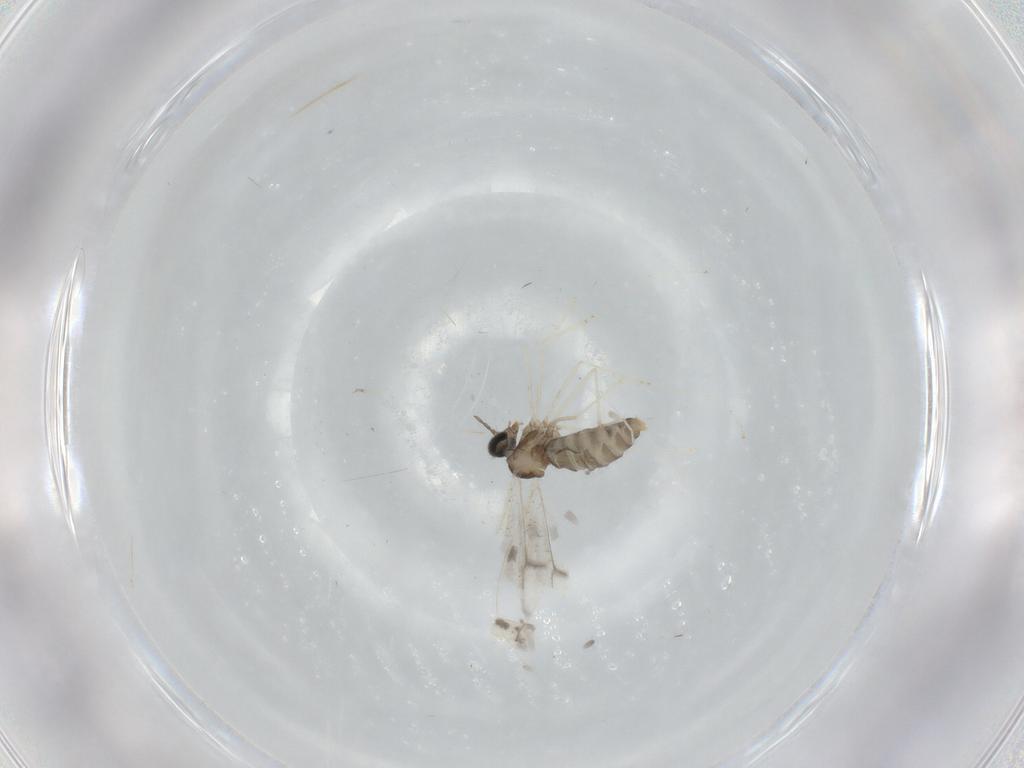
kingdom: Animalia
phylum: Arthropoda
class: Insecta
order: Diptera
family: Cecidomyiidae
